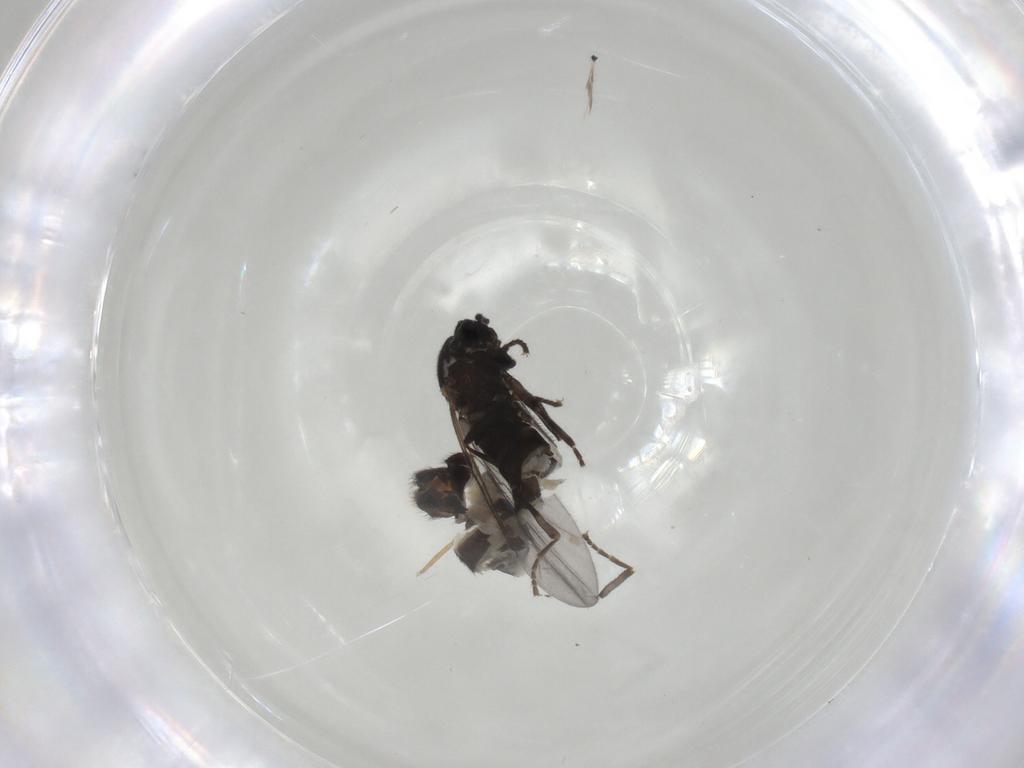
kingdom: Animalia
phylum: Arthropoda
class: Insecta
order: Diptera
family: Scatopsidae
